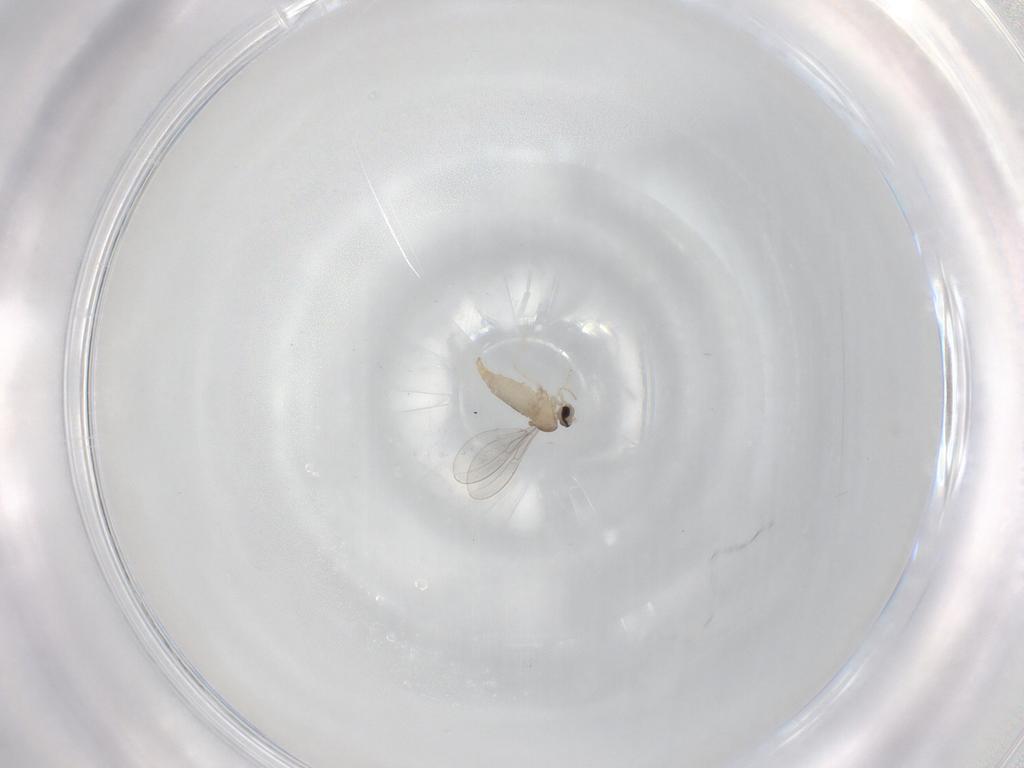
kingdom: Animalia
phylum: Arthropoda
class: Insecta
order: Diptera
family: Cecidomyiidae
